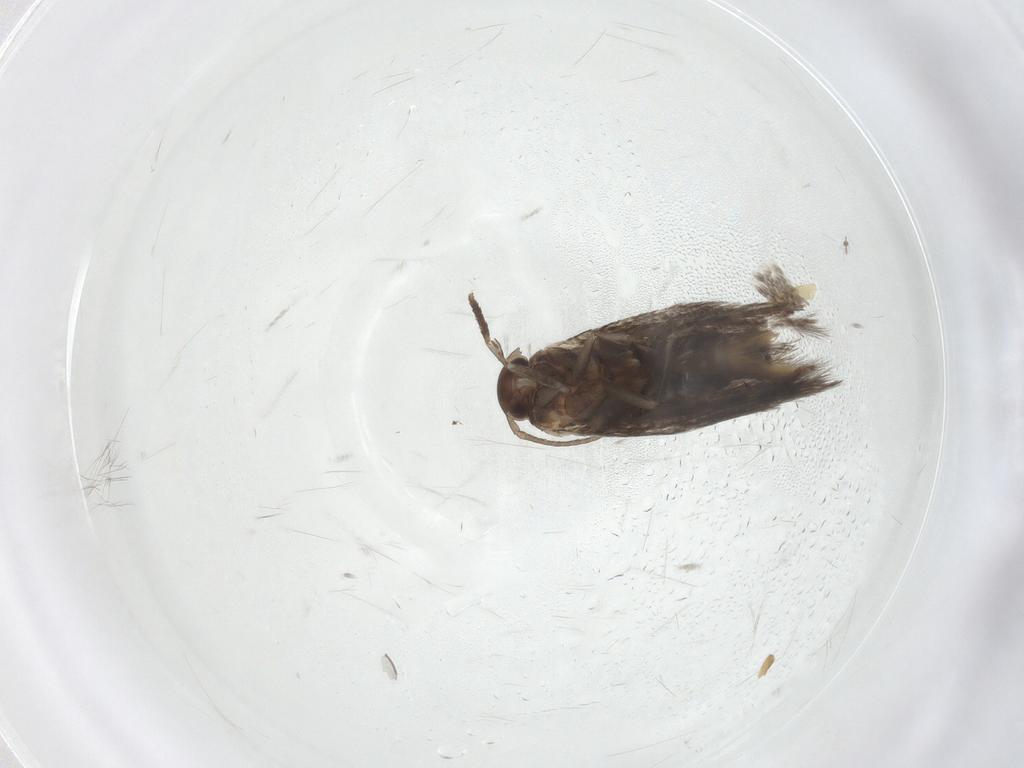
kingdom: Animalia
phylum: Arthropoda
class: Insecta
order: Lepidoptera
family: Elachistidae
